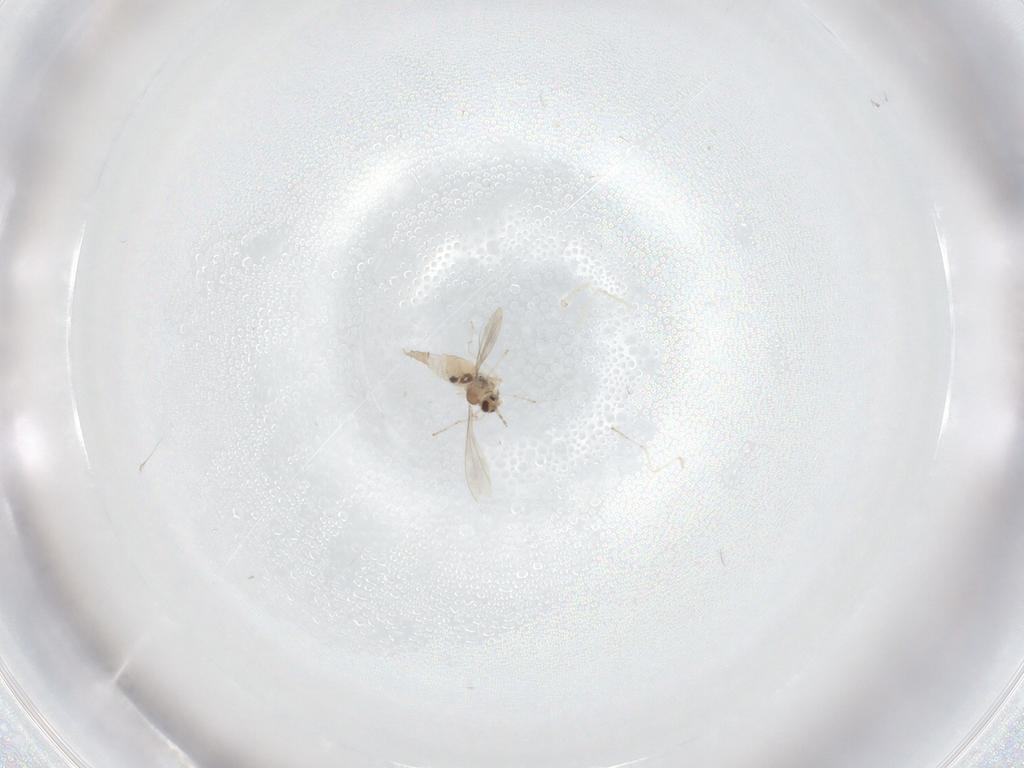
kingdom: Animalia
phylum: Arthropoda
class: Insecta
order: Diptera
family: Cecidomyiidae
